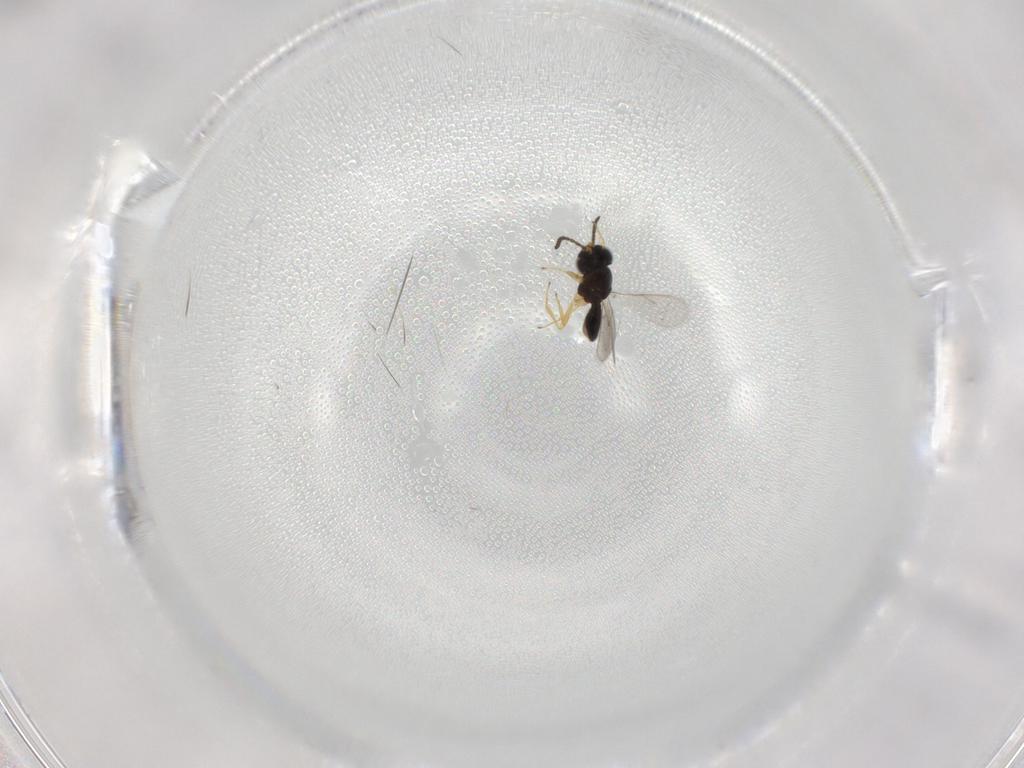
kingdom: Animalia
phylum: Arthropoda
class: Insecta
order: Hymenoptera
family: Scelionidae
